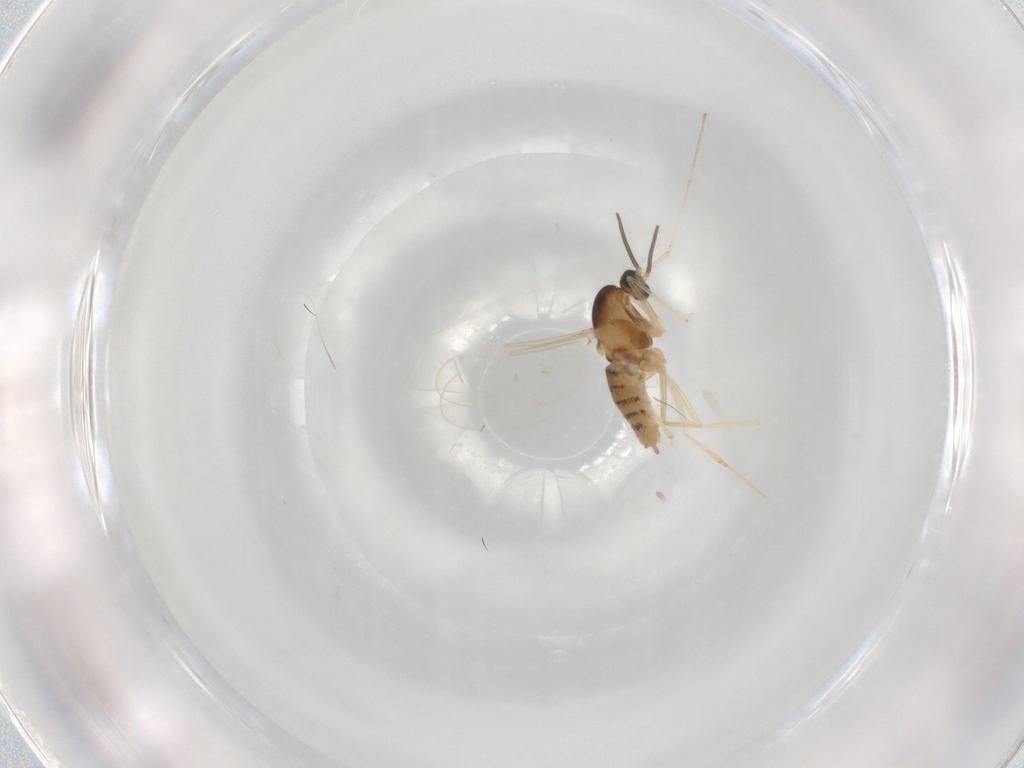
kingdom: Animalia
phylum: Arthropoda
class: Insecta
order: Diptera
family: Cecidomyiidae
